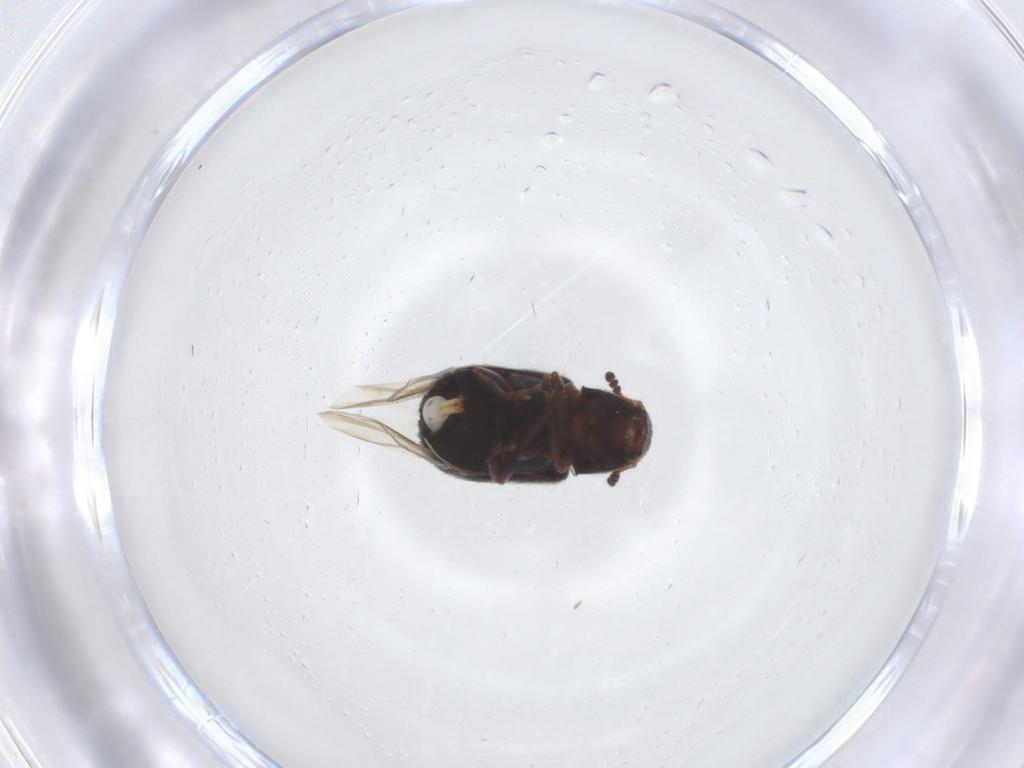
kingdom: Animalia
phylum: Arthropoda
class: Insecta
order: Coleoptera
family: Anthribidae
